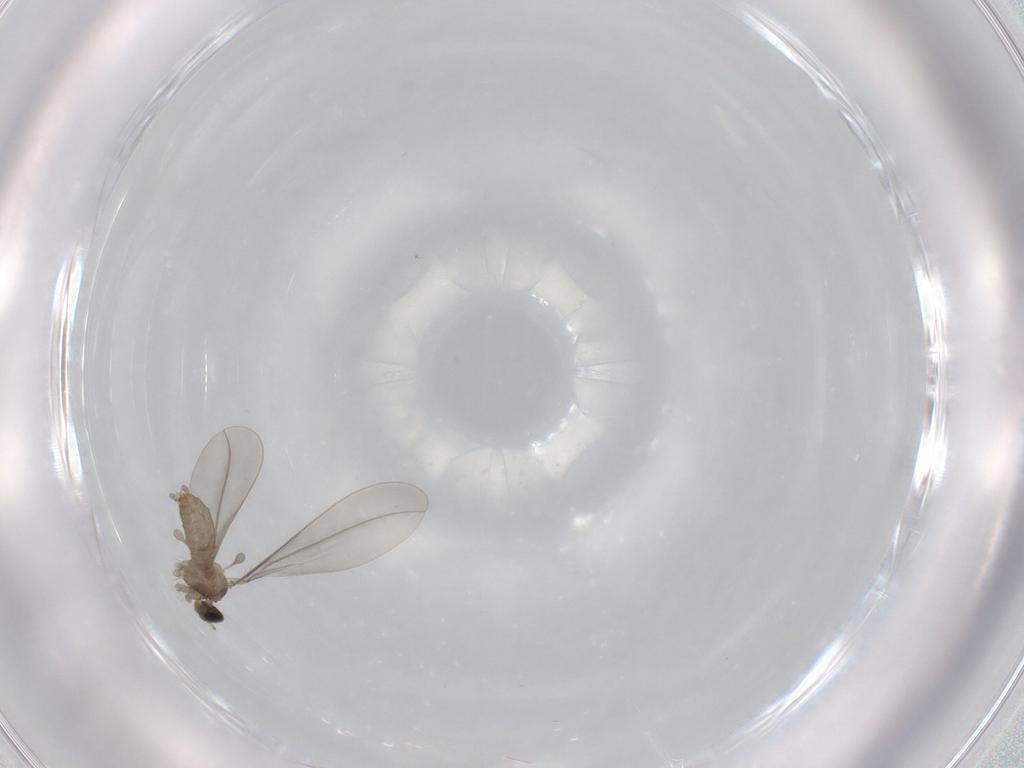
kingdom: Animalia
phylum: Arthropoda
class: Insecta
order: Diptera
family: Cecidomyiidae
